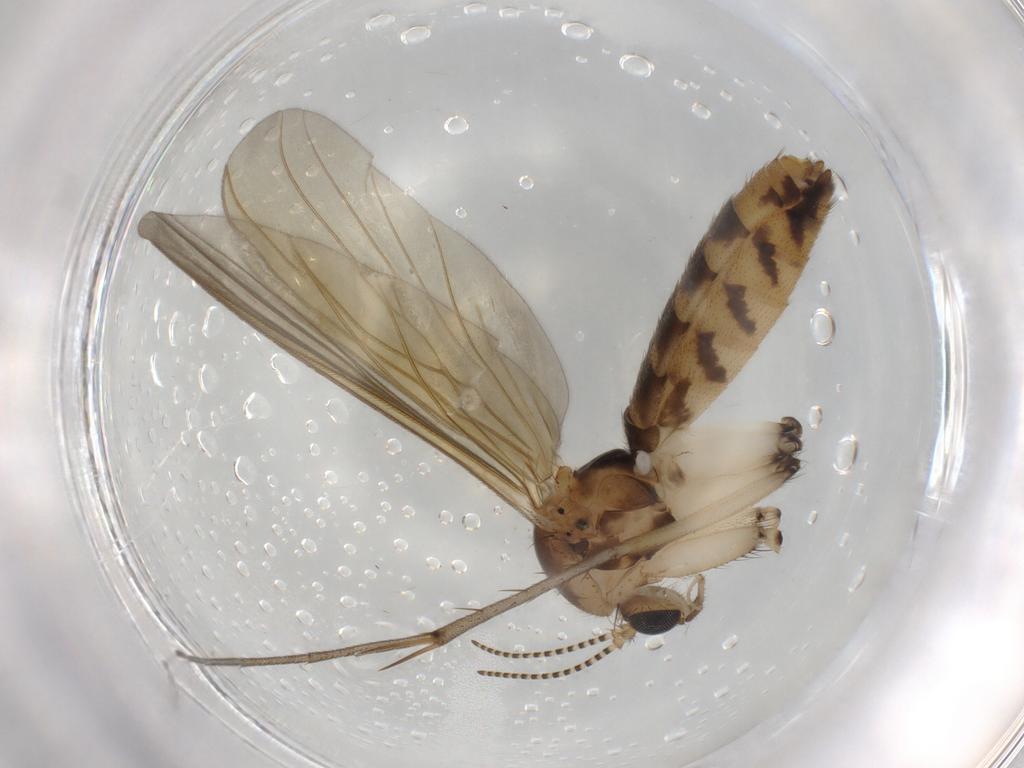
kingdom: Animalia
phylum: Arthropoda
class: Insecta
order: Diptera
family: Mycetophilidae
